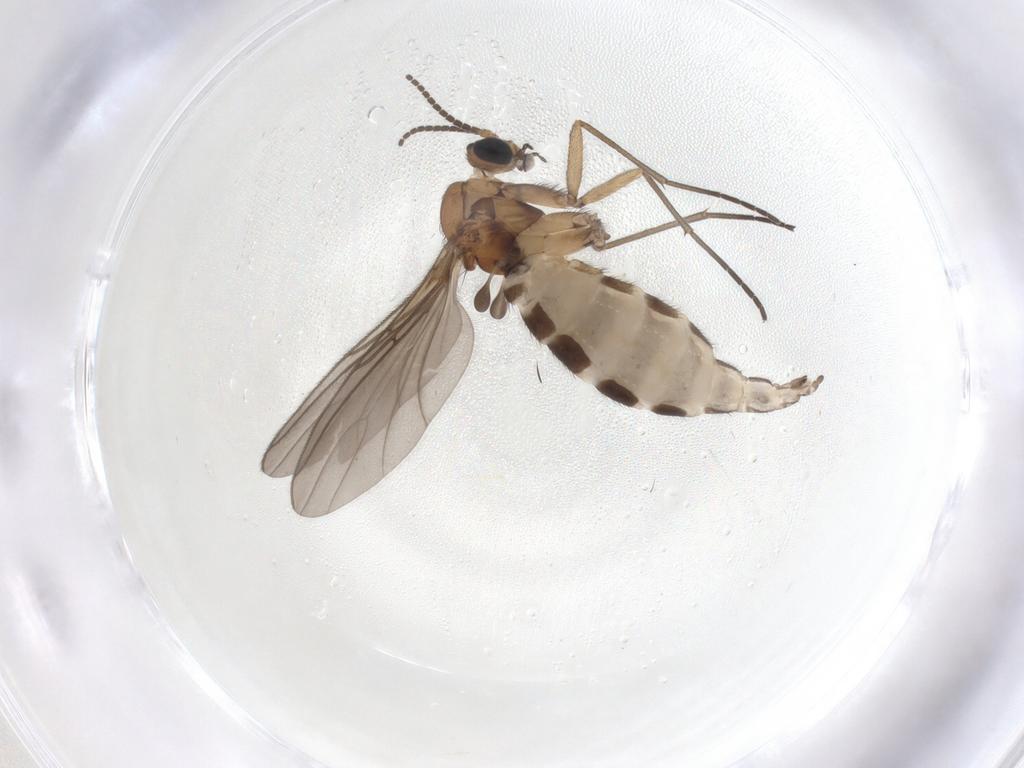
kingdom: Animalia
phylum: Arthropoda
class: Insecta
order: Diptera
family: Sciaridae
